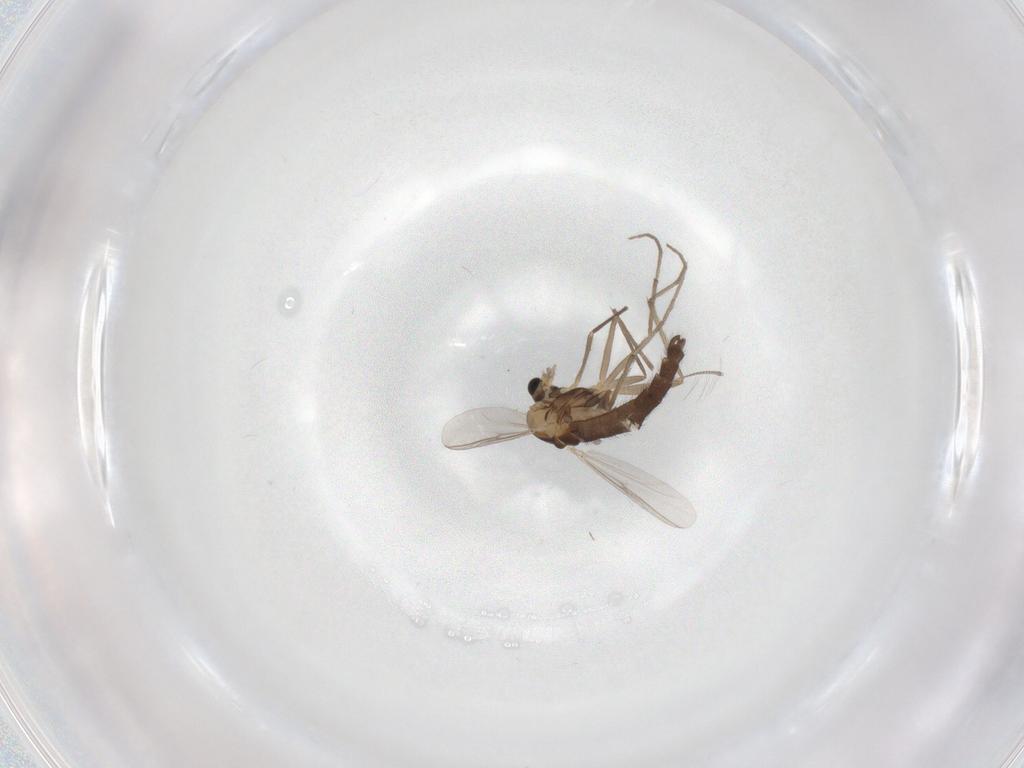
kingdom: Animalia
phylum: Arthropoda
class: Insecta
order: Diptera
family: Chironomidae
